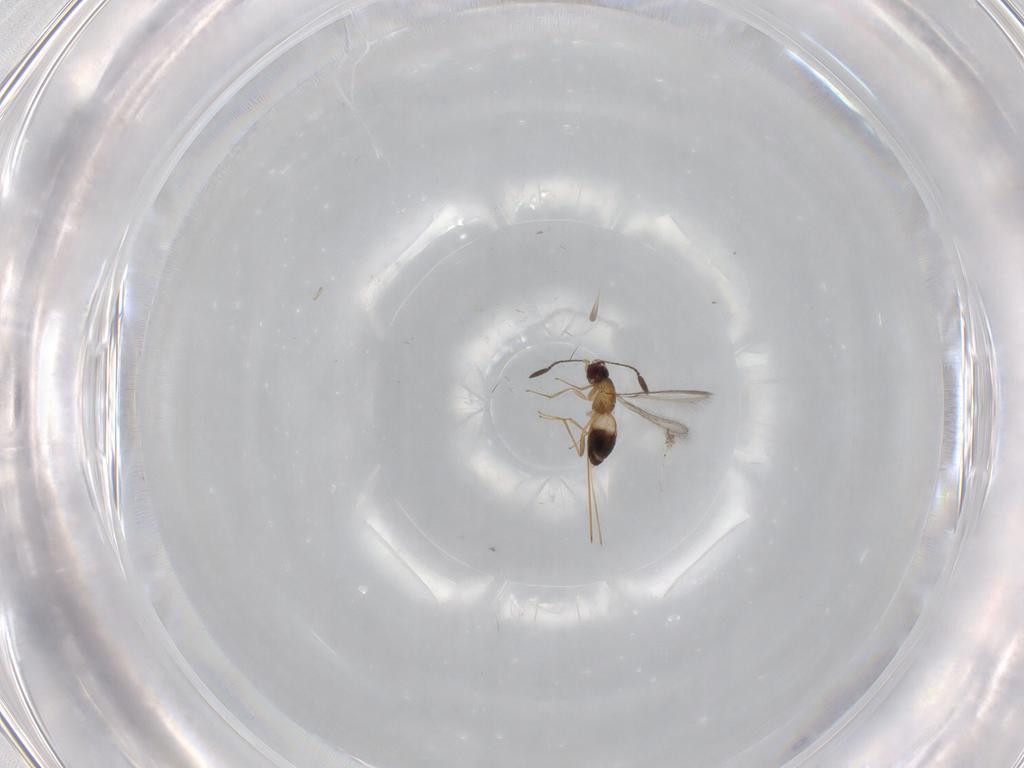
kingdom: Animalia
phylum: Arthropoda
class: Insecta
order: Hymenoptera
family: Mymaridae
